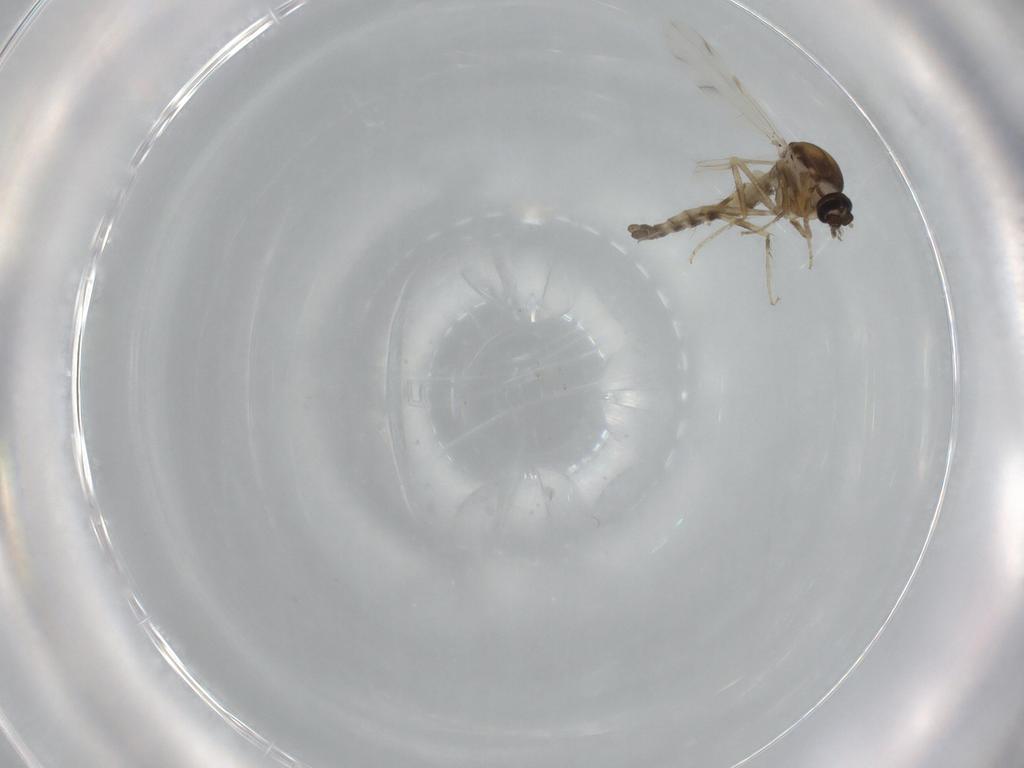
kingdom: Animalia
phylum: Arthropoda
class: Insecta
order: Diptera
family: Ceratopogonidae
